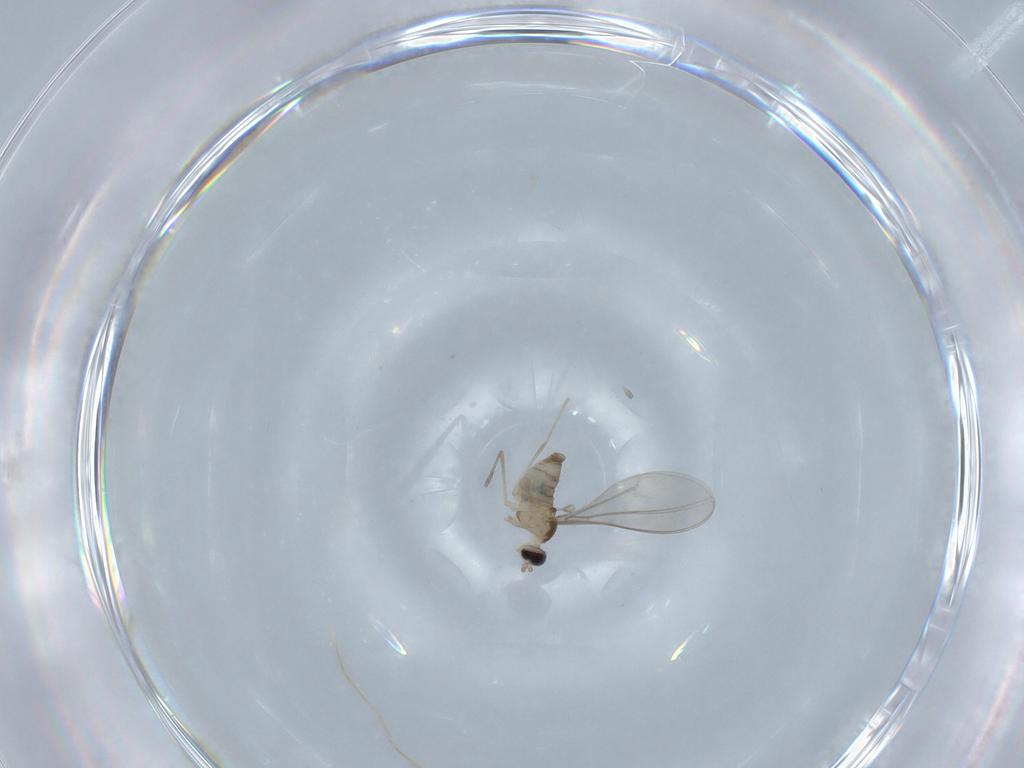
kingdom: Animalia
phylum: Arthropoda
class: Insecta
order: Diptera
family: Cecidomyiidae
